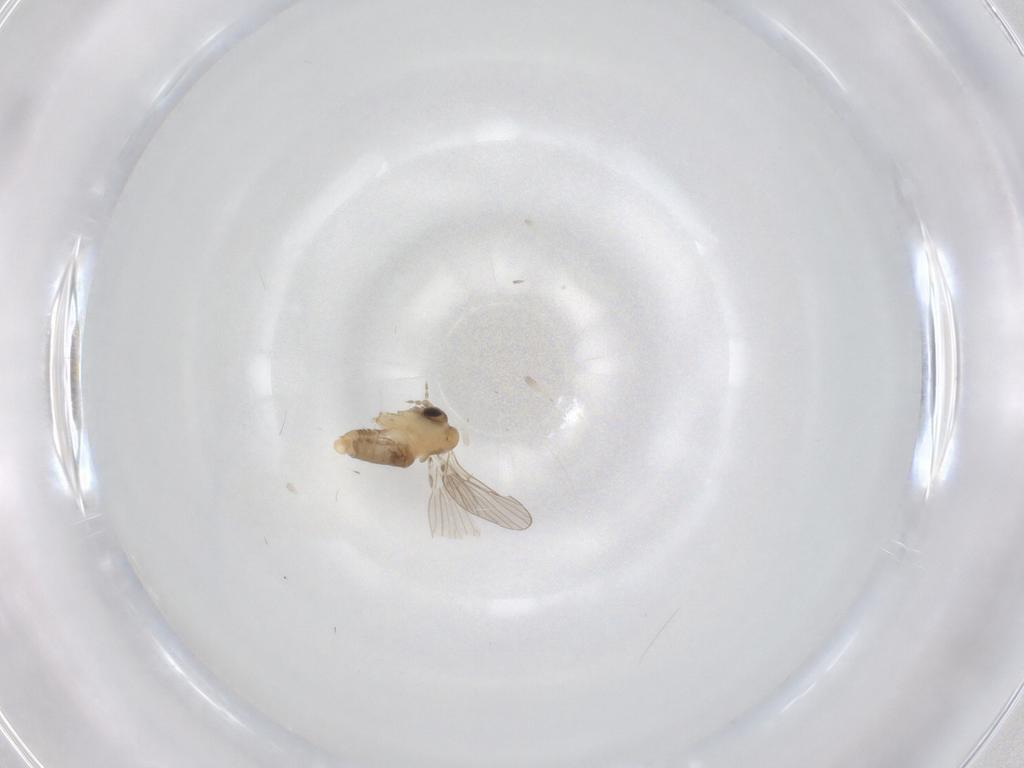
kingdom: Animalia
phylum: Arthropoda
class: Insecta
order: Diptera
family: Psychodidae
